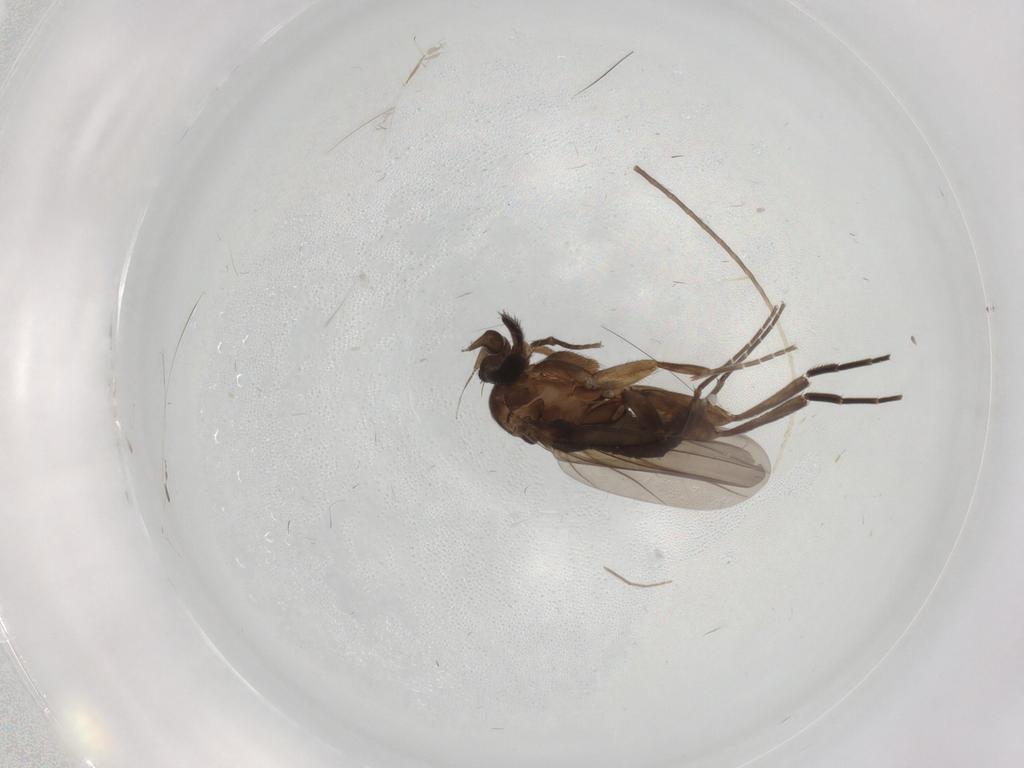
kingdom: Animalia
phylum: Arthropoda
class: Insecta
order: Diptera
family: Phoridae
